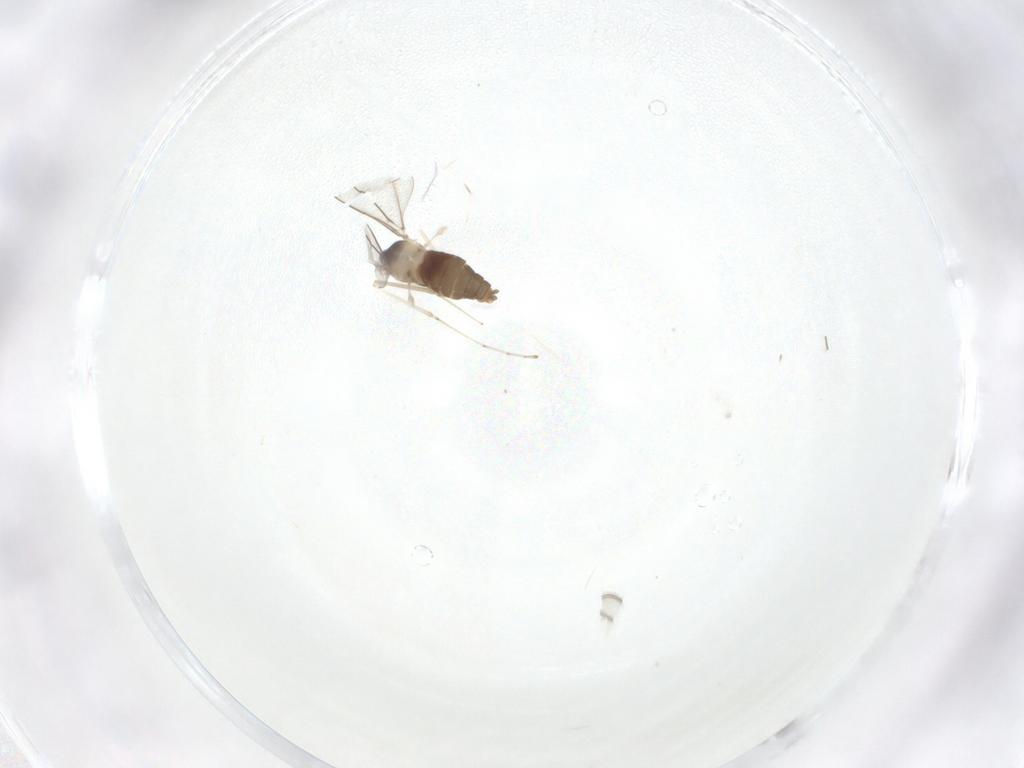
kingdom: Animalia
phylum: Arthropoda
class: Insecta
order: Diptera
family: Cecidomyiidae
